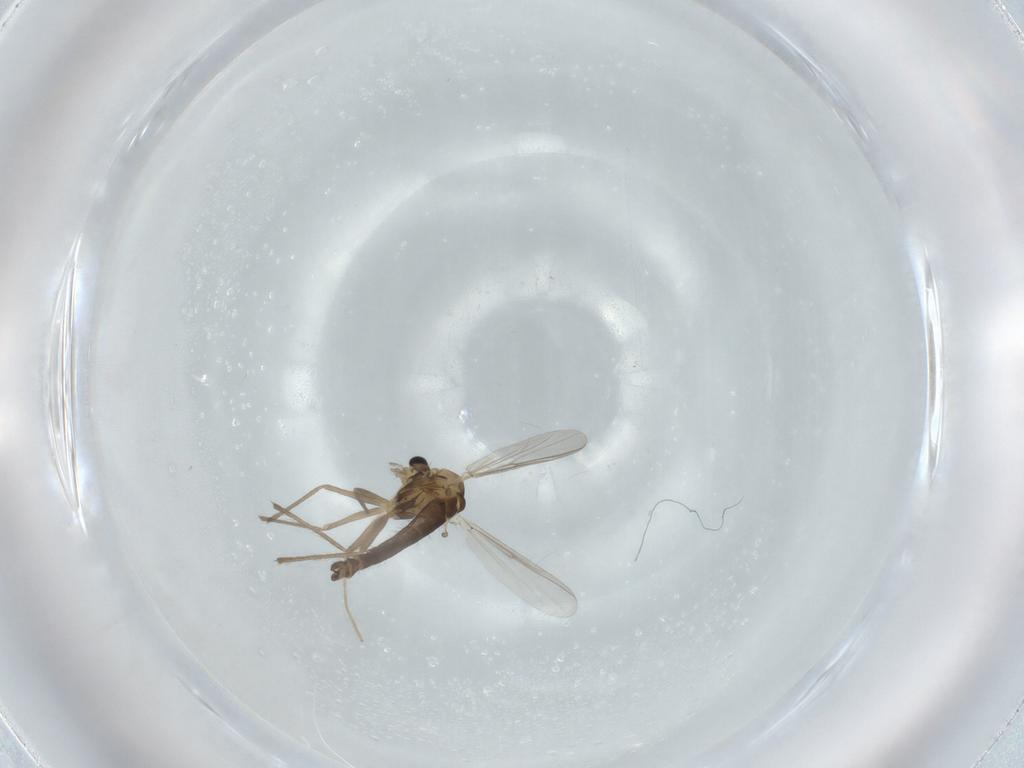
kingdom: Animalia
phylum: Arthropoda
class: Insecta
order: Diptera
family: Chironomidae
